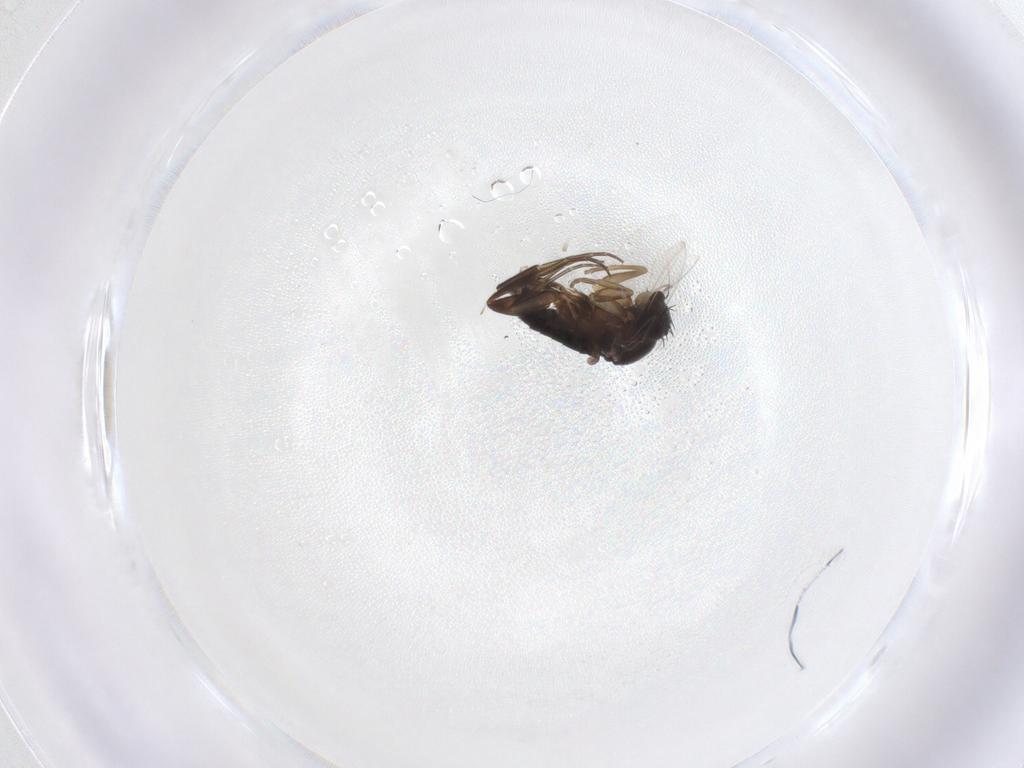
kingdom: Animalia
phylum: Arthropoda
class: Insecta
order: Diptera
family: Phoridae
